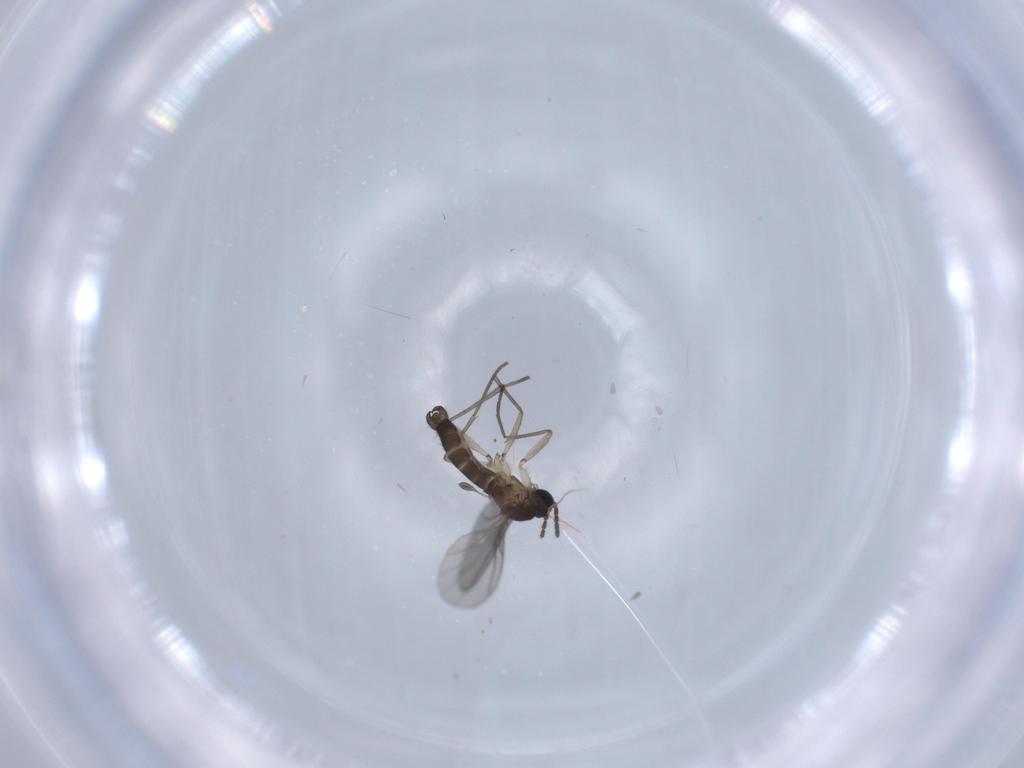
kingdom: Animalia
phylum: Arthropoda
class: Insecta
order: Diptera
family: Sciaridae
